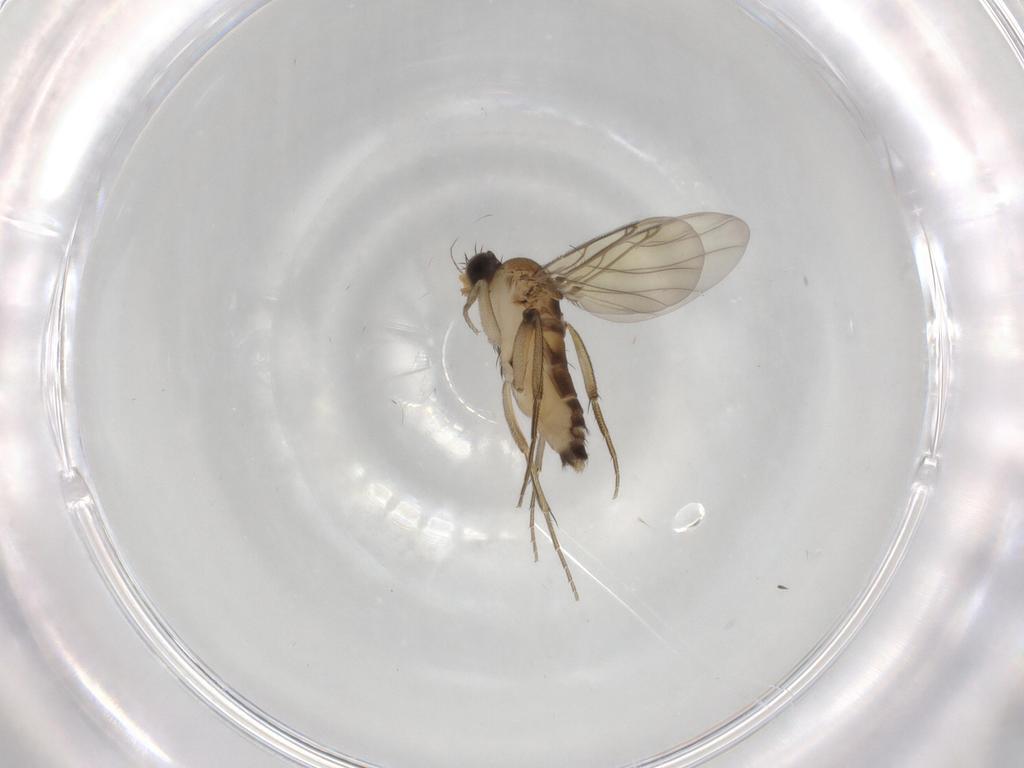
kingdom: Animalia
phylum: Arthropoda
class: Insecta
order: Diptera
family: Phoridae
